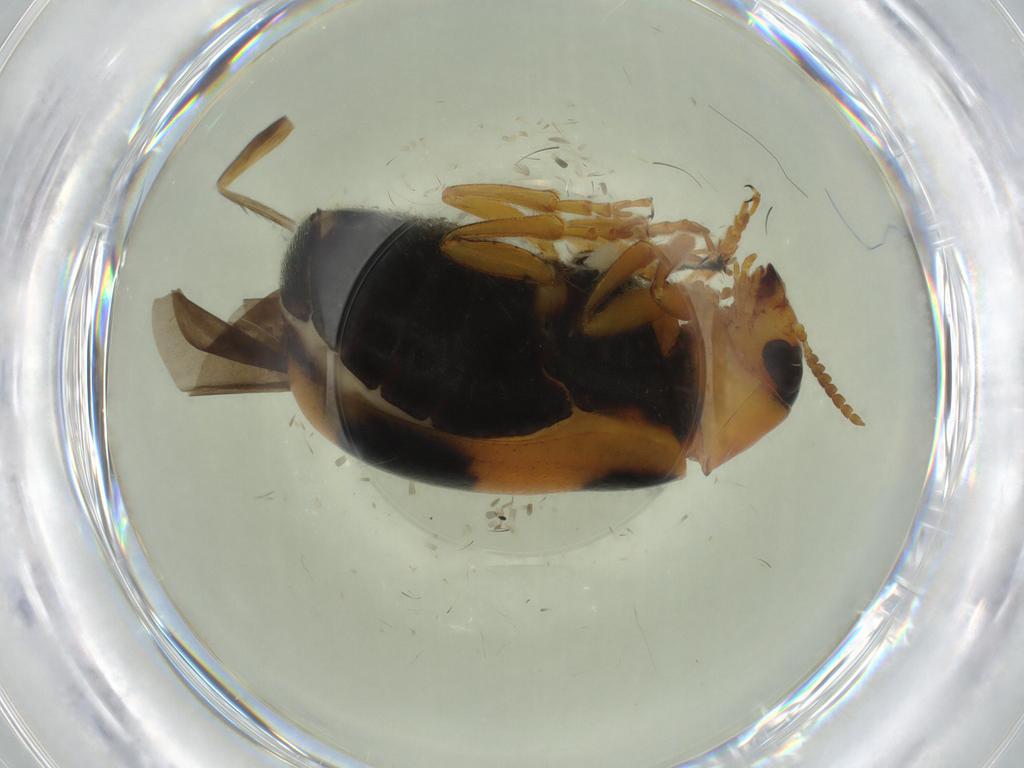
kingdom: Animalia
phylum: Arthropoda
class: Insecta
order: Coleoptera
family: Chrysomelidae
